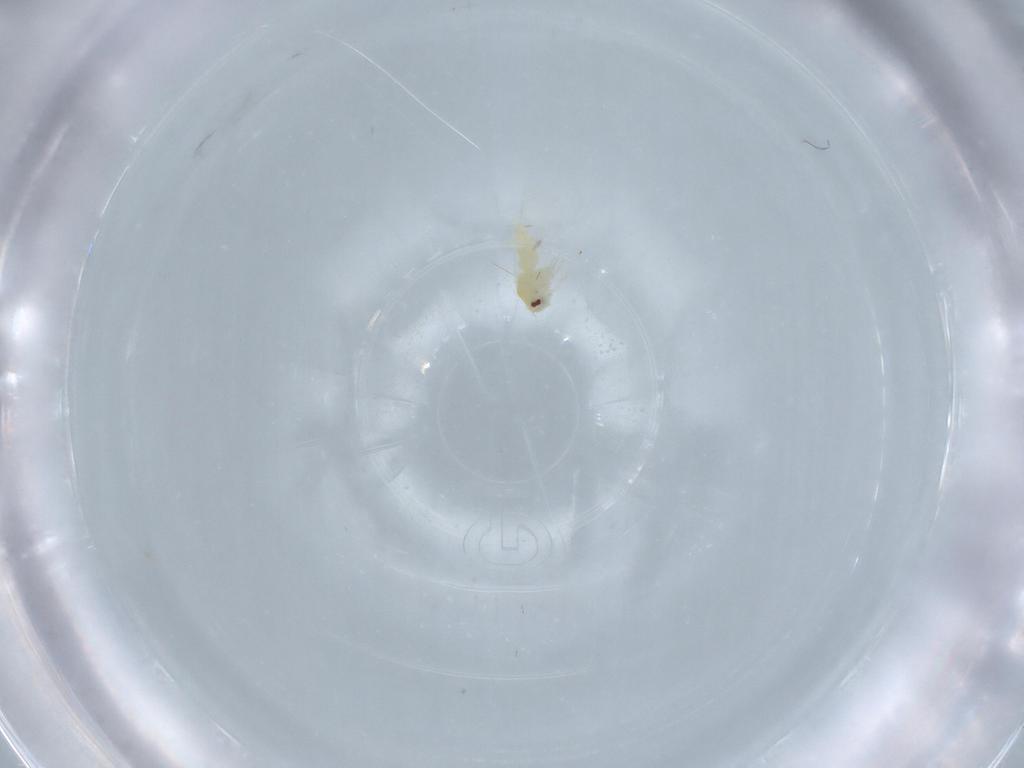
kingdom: Animalia
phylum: Arthropoda
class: Insecta
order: Hemiptera
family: Aleyrodidae
